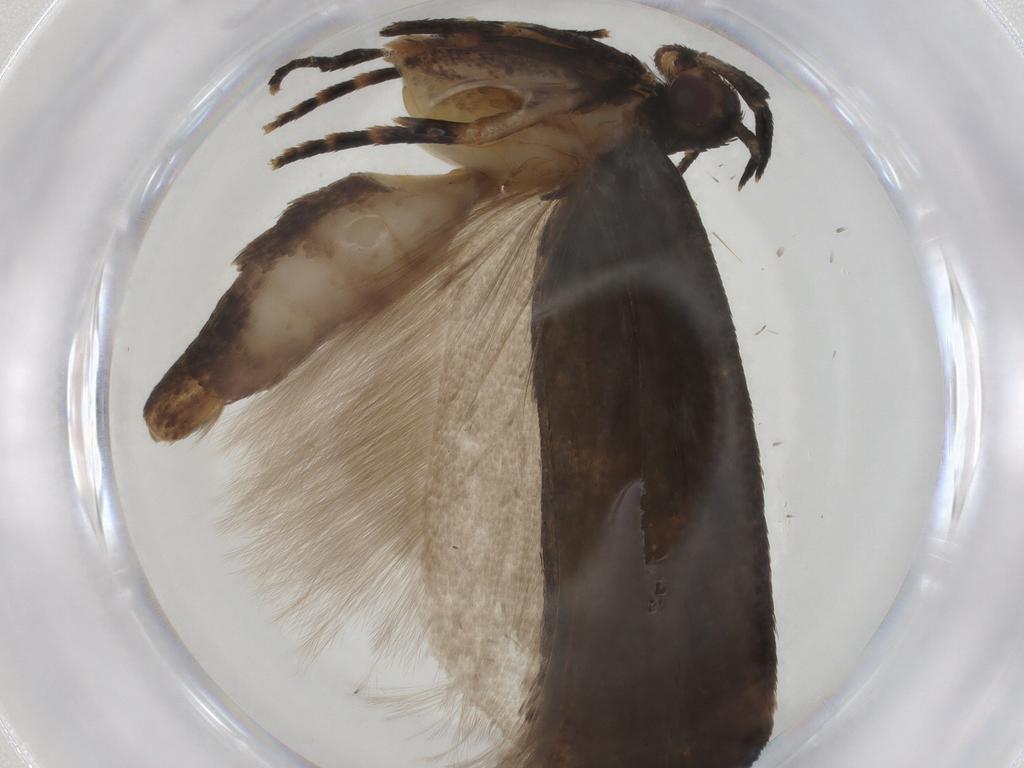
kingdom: Animalia
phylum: Arthropoda
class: Insecta
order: Lepidoptera
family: Gelechiidae
